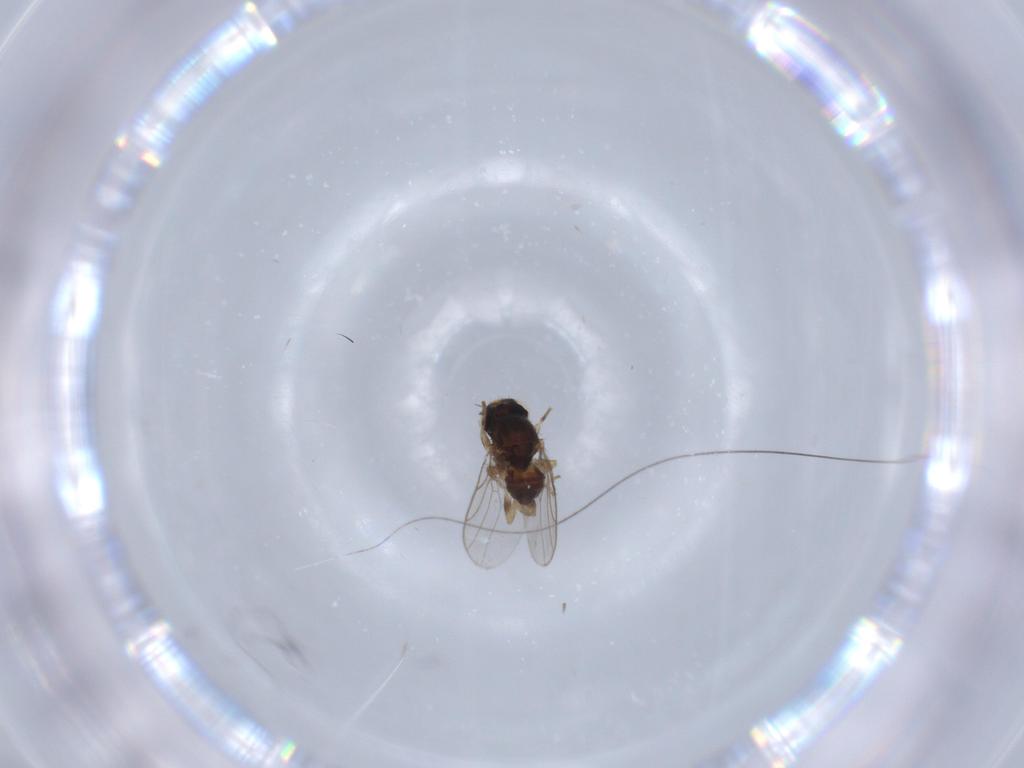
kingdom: Animalia
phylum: Arthropoda
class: Insecta
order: Diptera
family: Chloropidae
